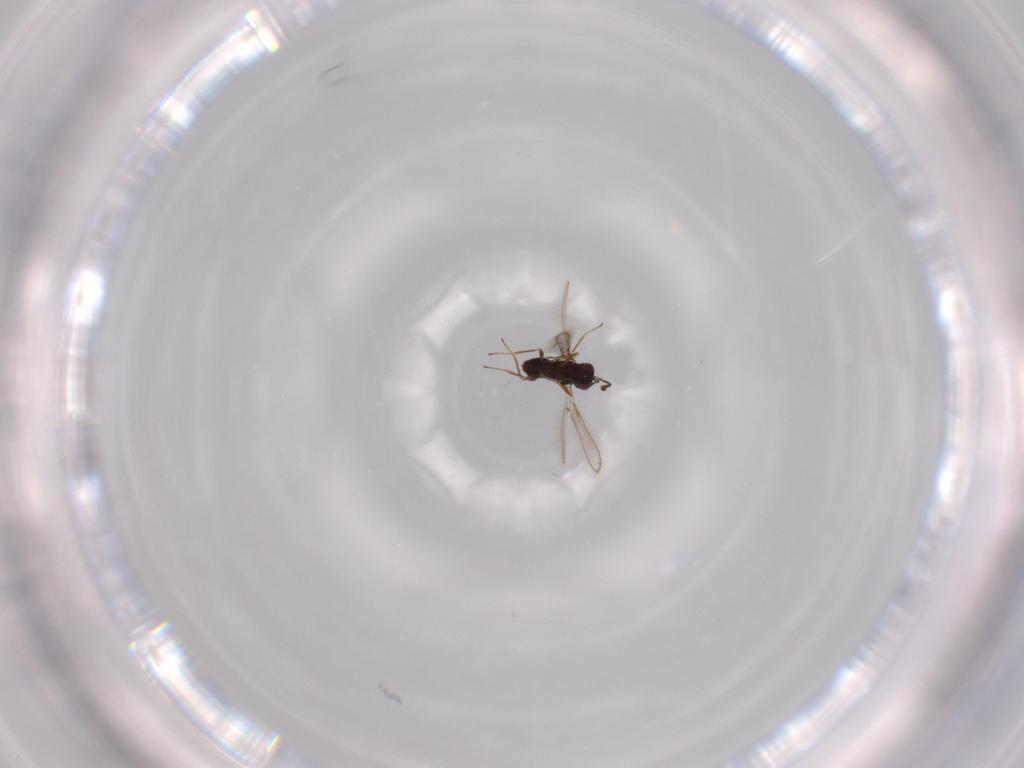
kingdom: Animalia
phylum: Arthropoda
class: Insecta
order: Hymenoptera
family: Mymaridae
